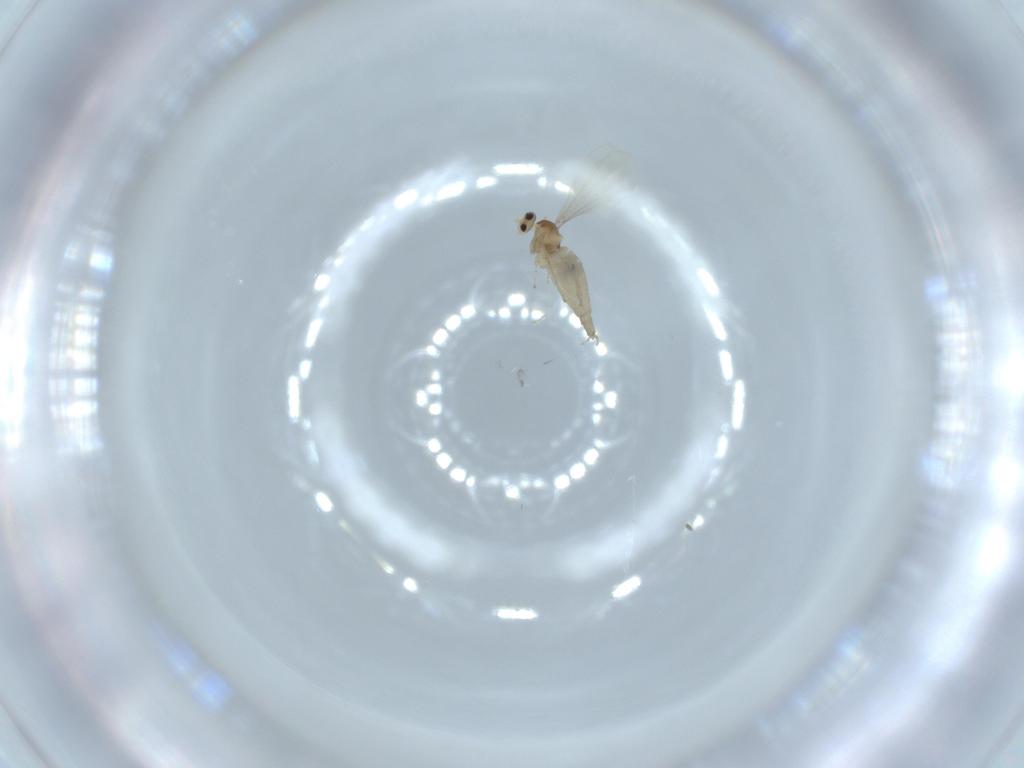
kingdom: Animalia
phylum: Arthropoda
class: Insecta
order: Diptera
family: Cecidomyiidae
